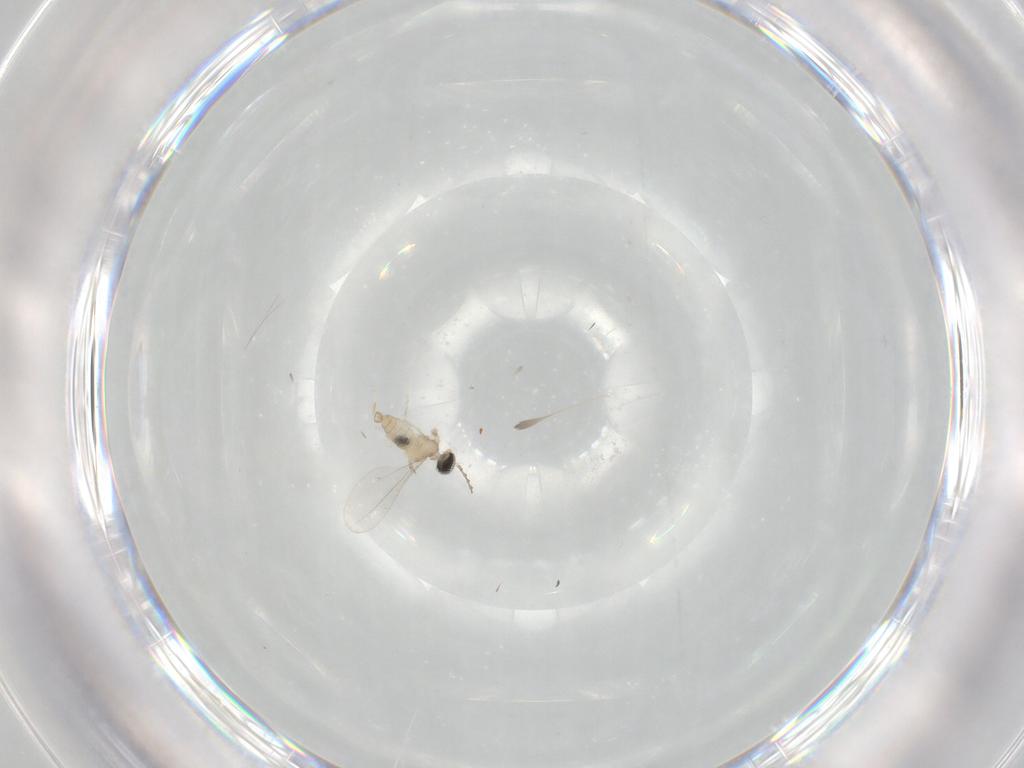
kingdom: Animalia
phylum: Arthropoda
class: Insecta
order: Diptera
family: Cecidomyiidae
